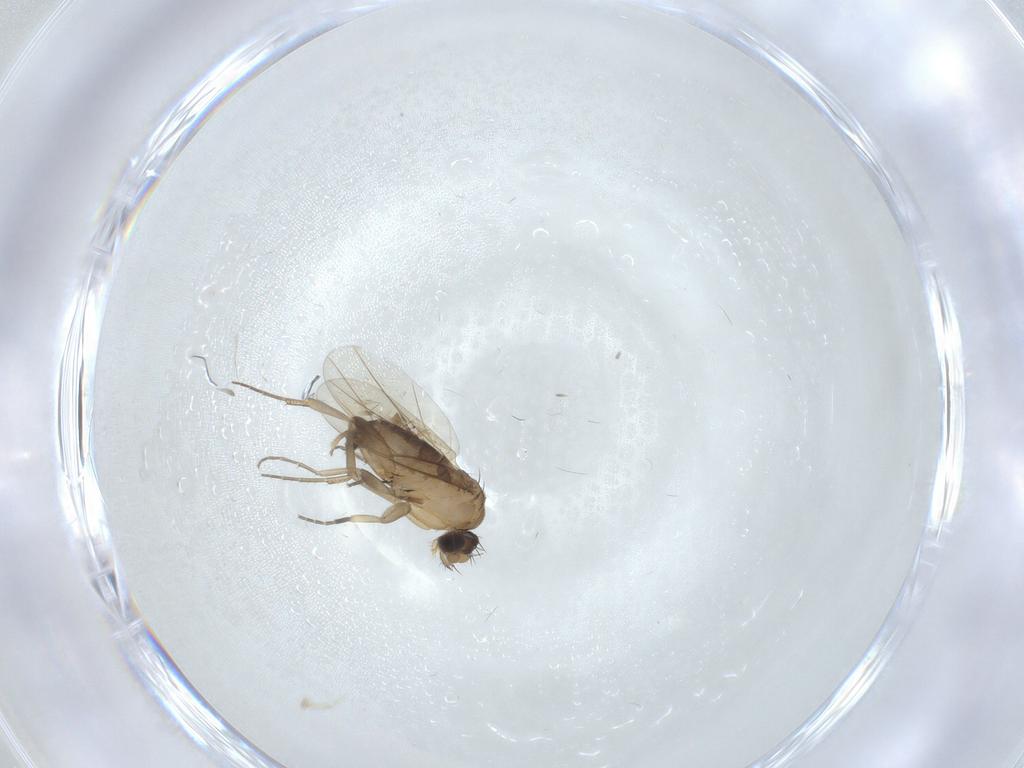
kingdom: Animalia
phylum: Arthropoda
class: Insecta
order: Diptera
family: Phoridae
